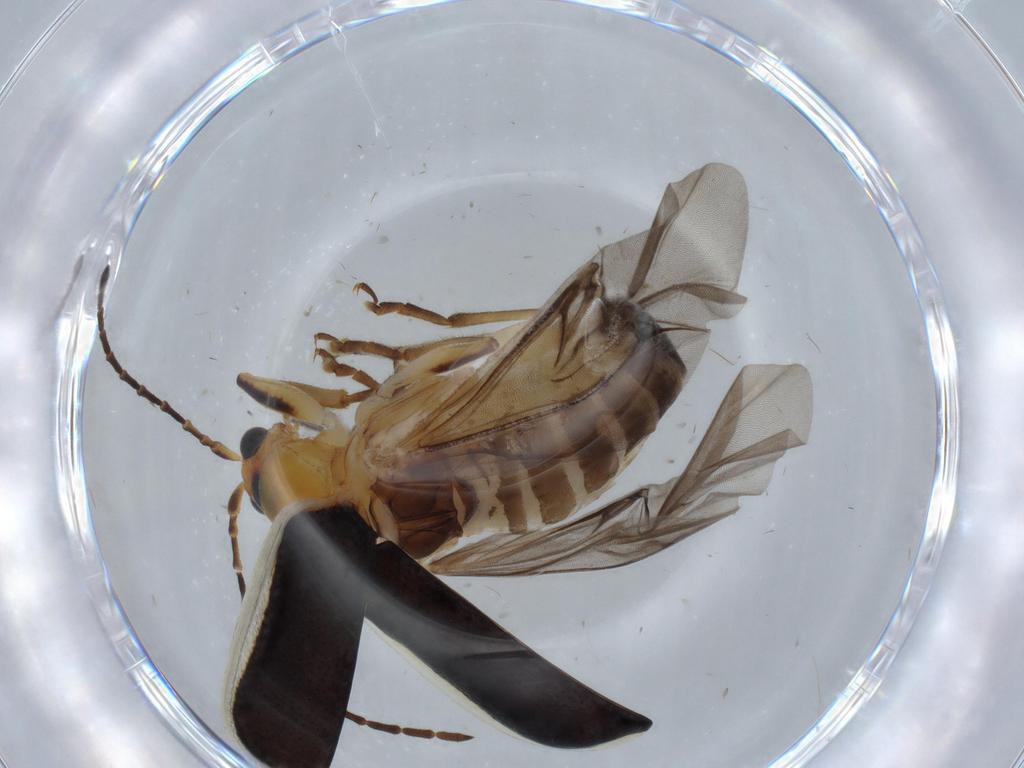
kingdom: Animalia
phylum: Arthropoda
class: Insecta
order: Coleoptera
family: Chrysomelidae
